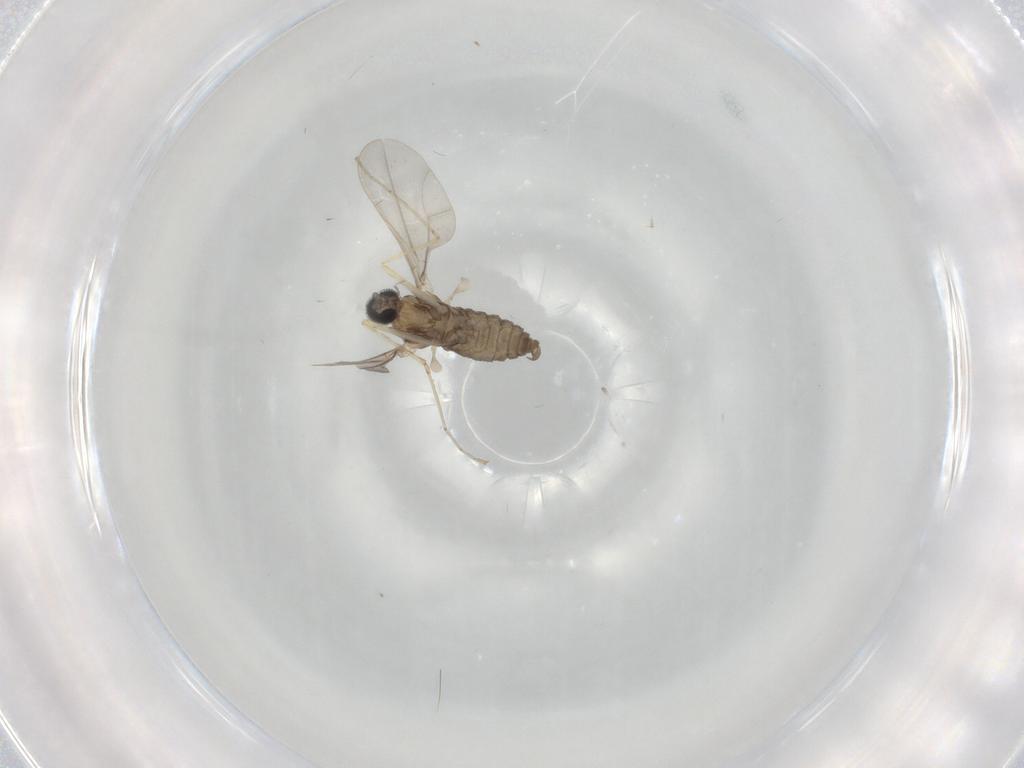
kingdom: Animalia
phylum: Arthropoda
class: Insecta
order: Diptera
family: Cecidomyiidae
